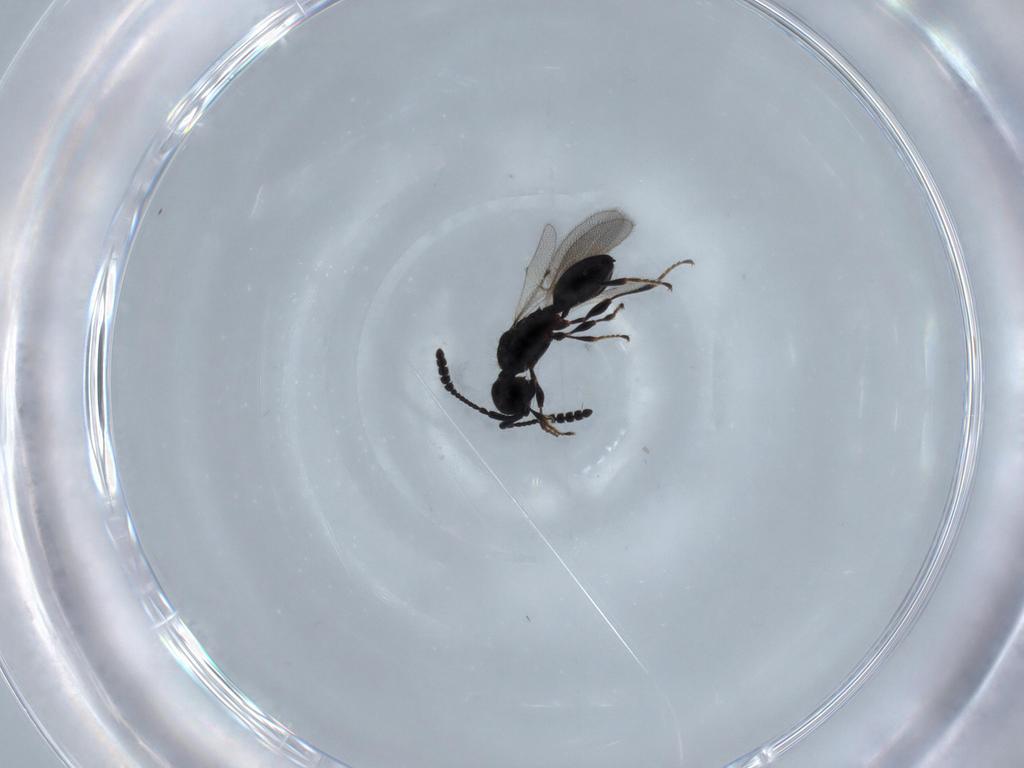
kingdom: Animalia
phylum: Arthropoda
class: Insecta
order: Hymenoptera
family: Diapriidae
